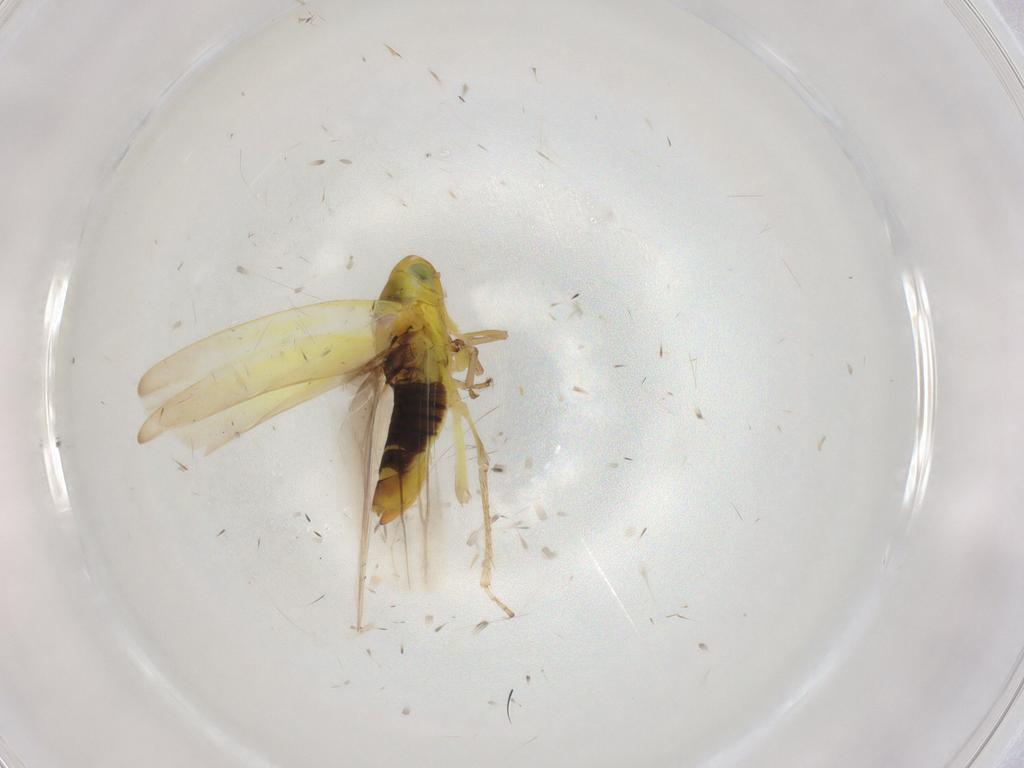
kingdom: Animalia
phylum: Arthropoda
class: Insecta
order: Hemiptera
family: Cicadellidae
